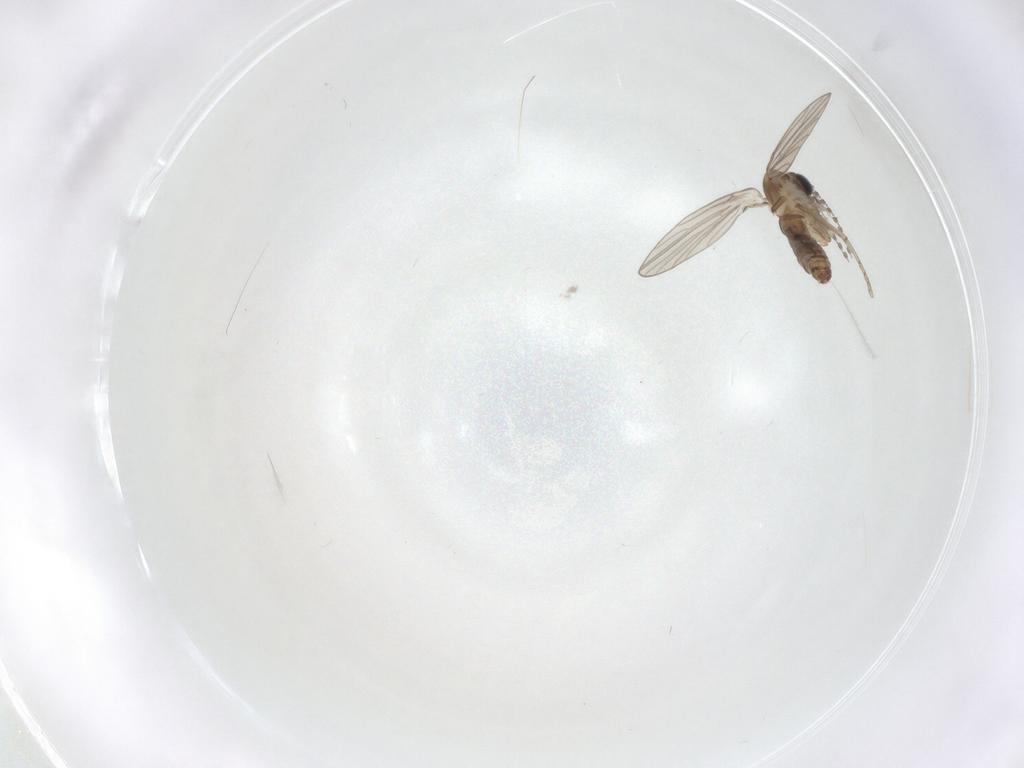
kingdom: Animalia
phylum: Arthropoda
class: Insecta
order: Diptera
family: Psychodidae
